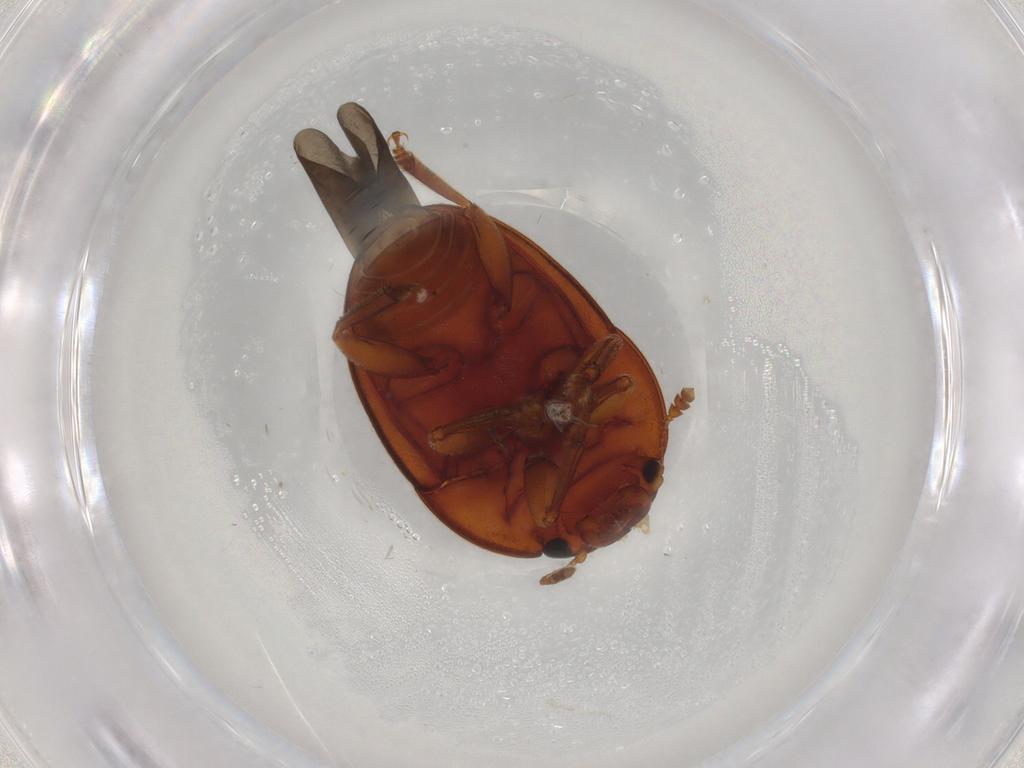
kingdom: Animalia
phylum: Arthropoda
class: Insecta
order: Coleoptera
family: Nitidulidae
